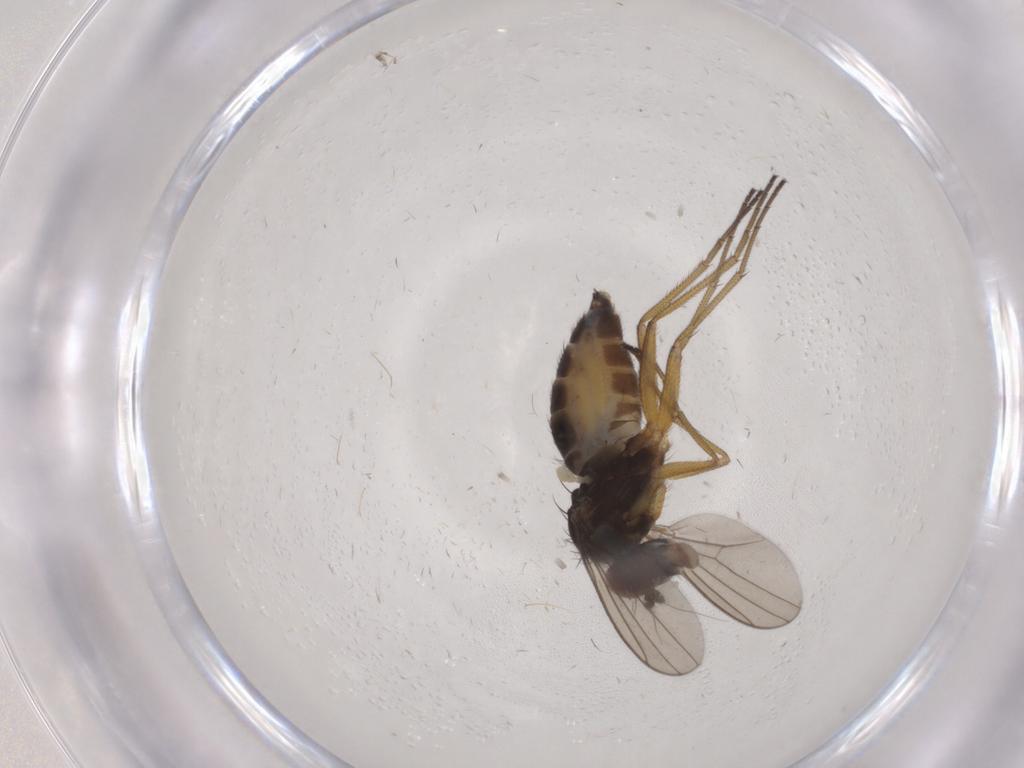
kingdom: Animalia
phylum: Arthropoda
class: Insecta
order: Diptera
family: Dolichopodidae
